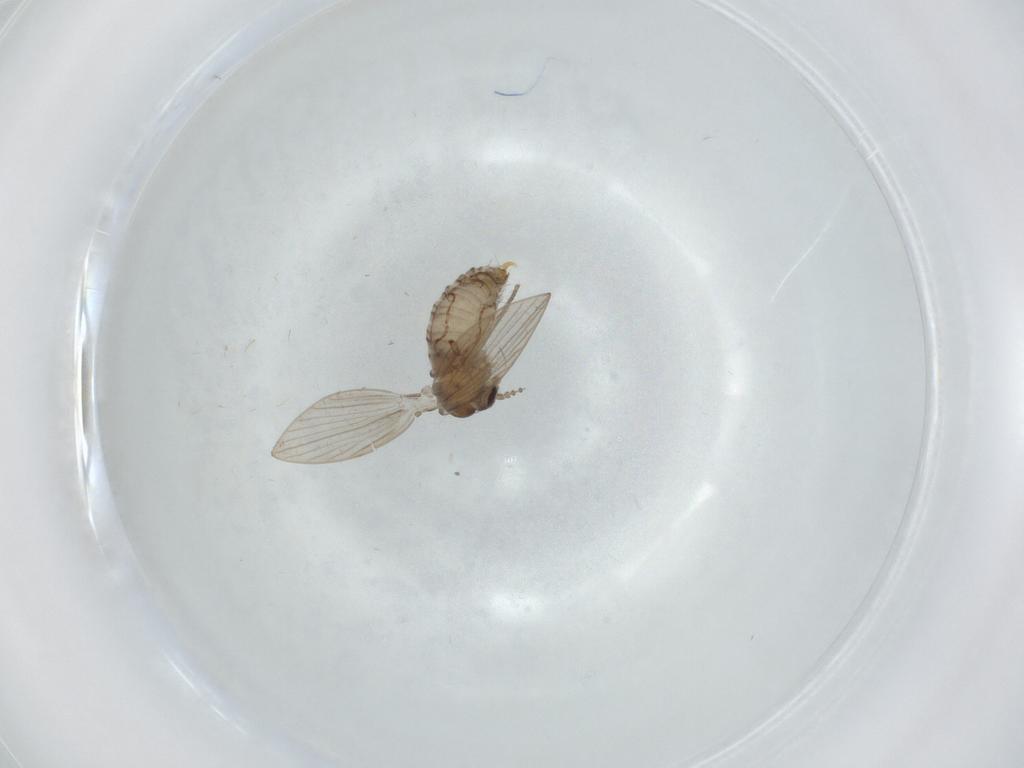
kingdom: Animalia
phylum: Arthropoda
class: Insecta
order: Diptera
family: Psychodidae
